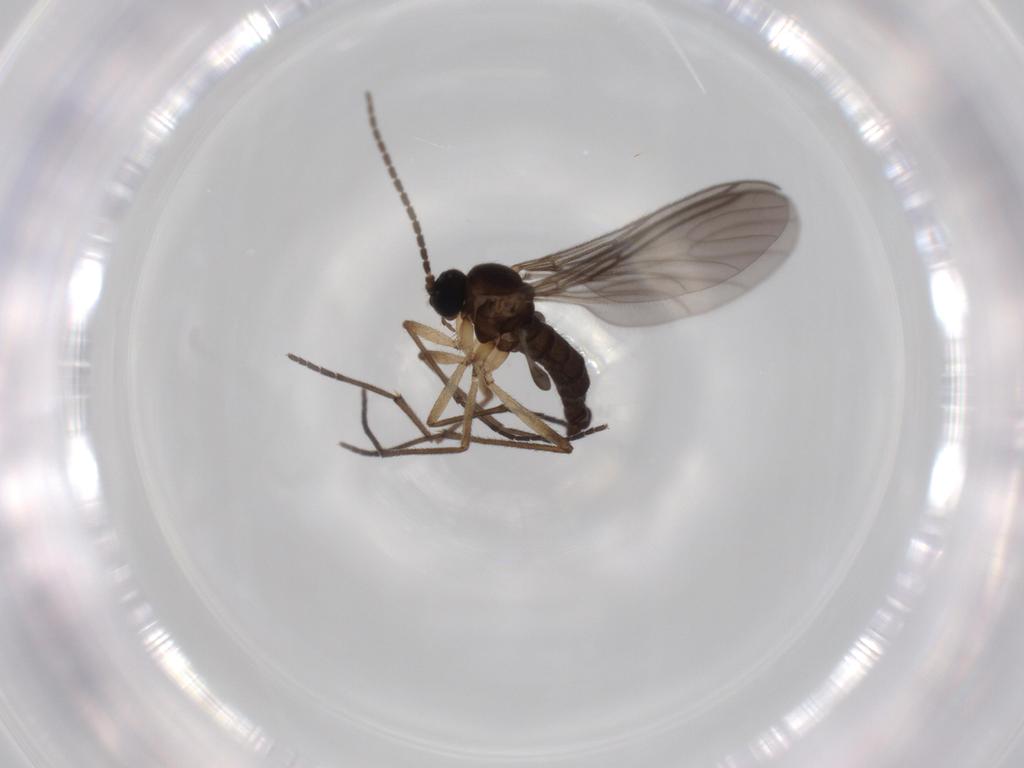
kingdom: Animalia
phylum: Arthropoda
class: Insecta
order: Diptera
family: Sciaridae
